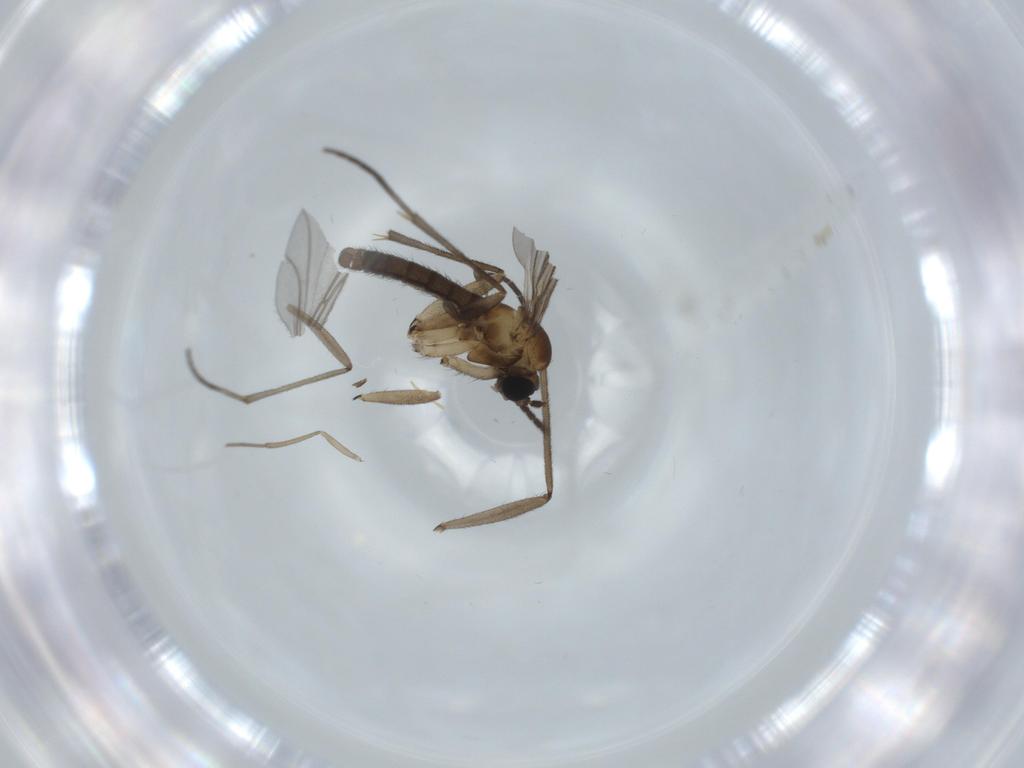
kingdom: Animalia
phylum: Arthropoda
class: Insecta
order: Diptera
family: Sciaridae
